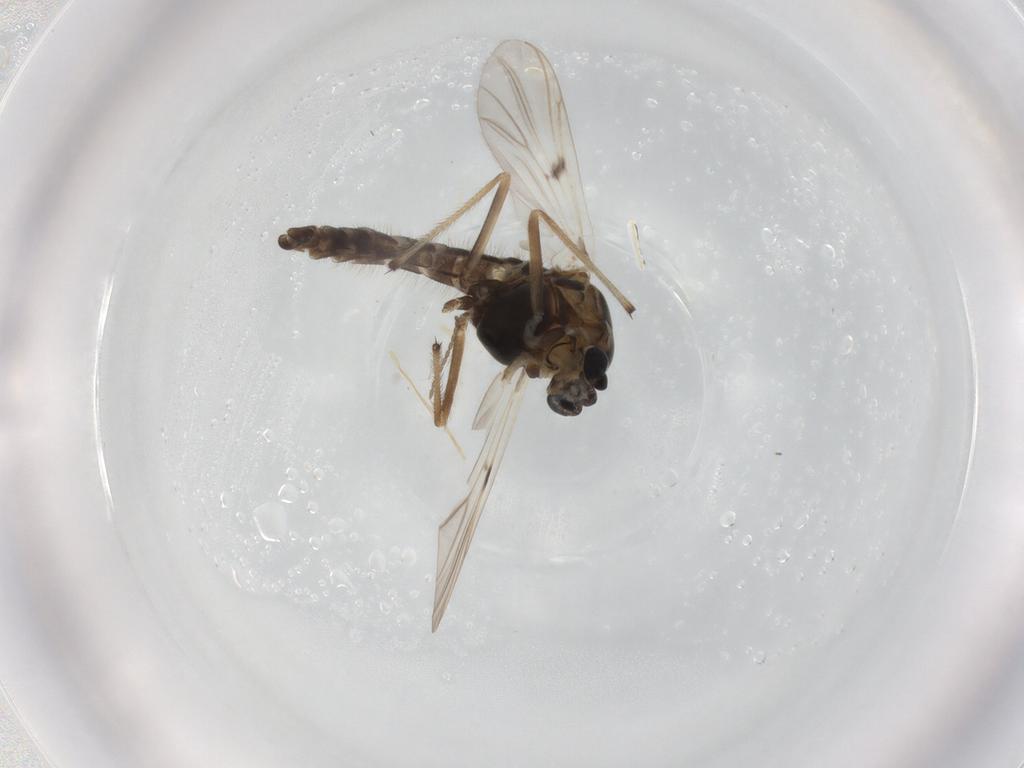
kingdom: Animalia
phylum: Arthropoda
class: Insecta
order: Diptera
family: Chironomidae
